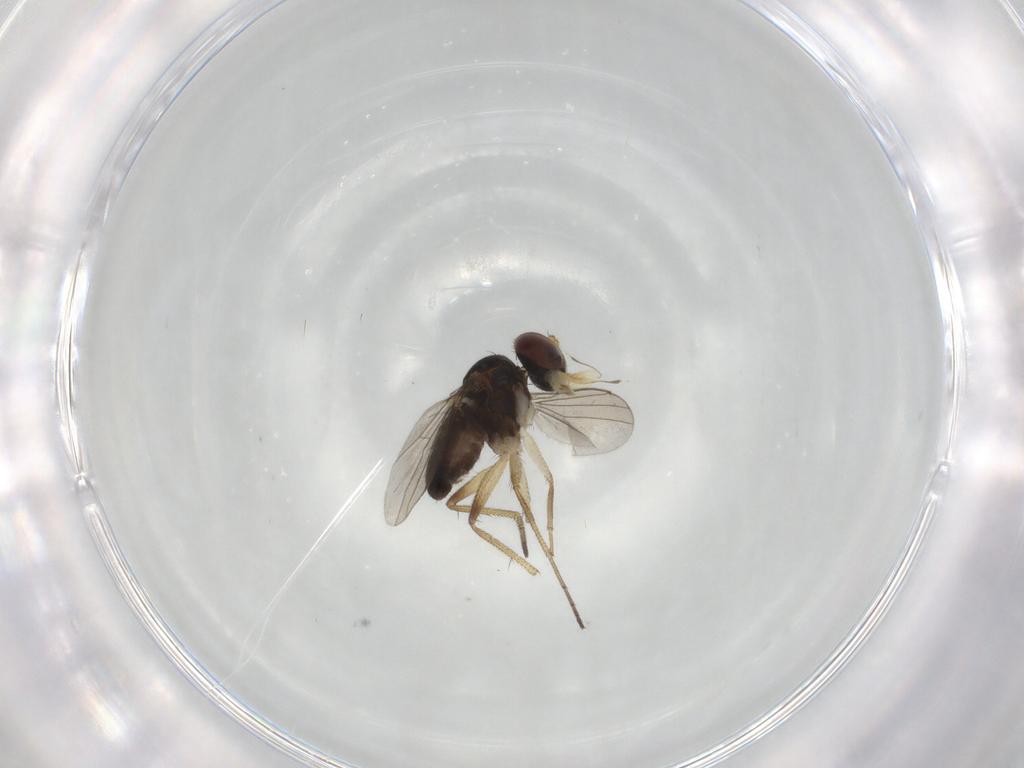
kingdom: Animalia
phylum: Arthropoda
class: Insecta
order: Diptera
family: Dolichopodidae
